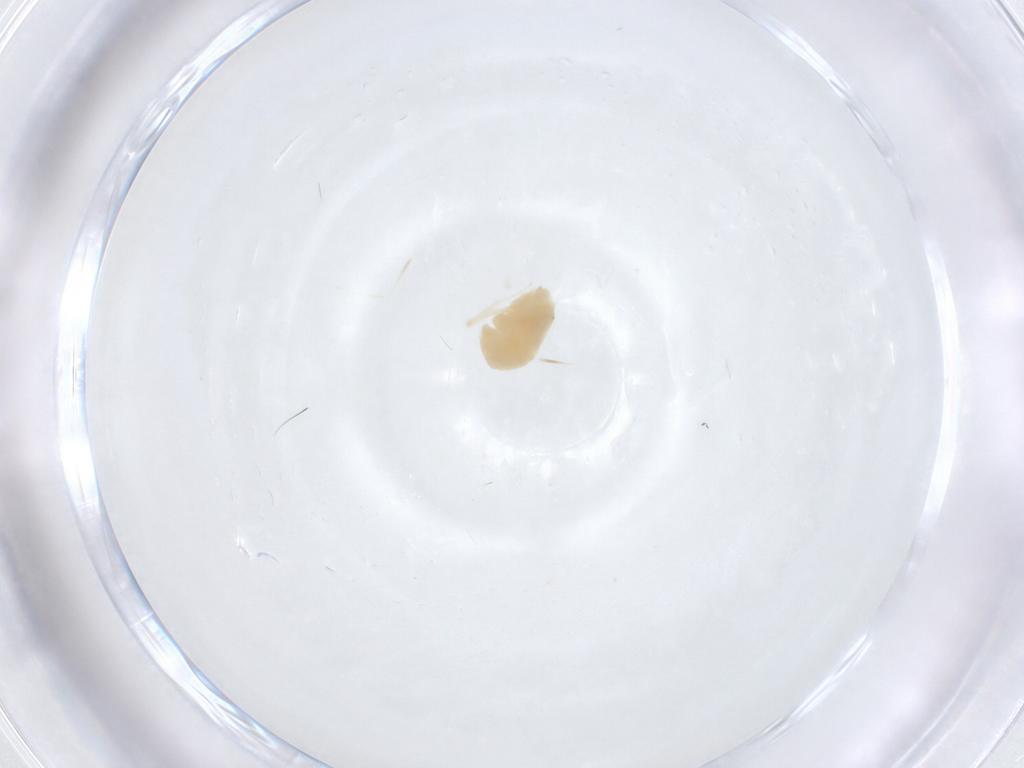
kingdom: Animalia
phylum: Arthropoda
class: Arachnida
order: Trombidiformes
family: Anystidae
